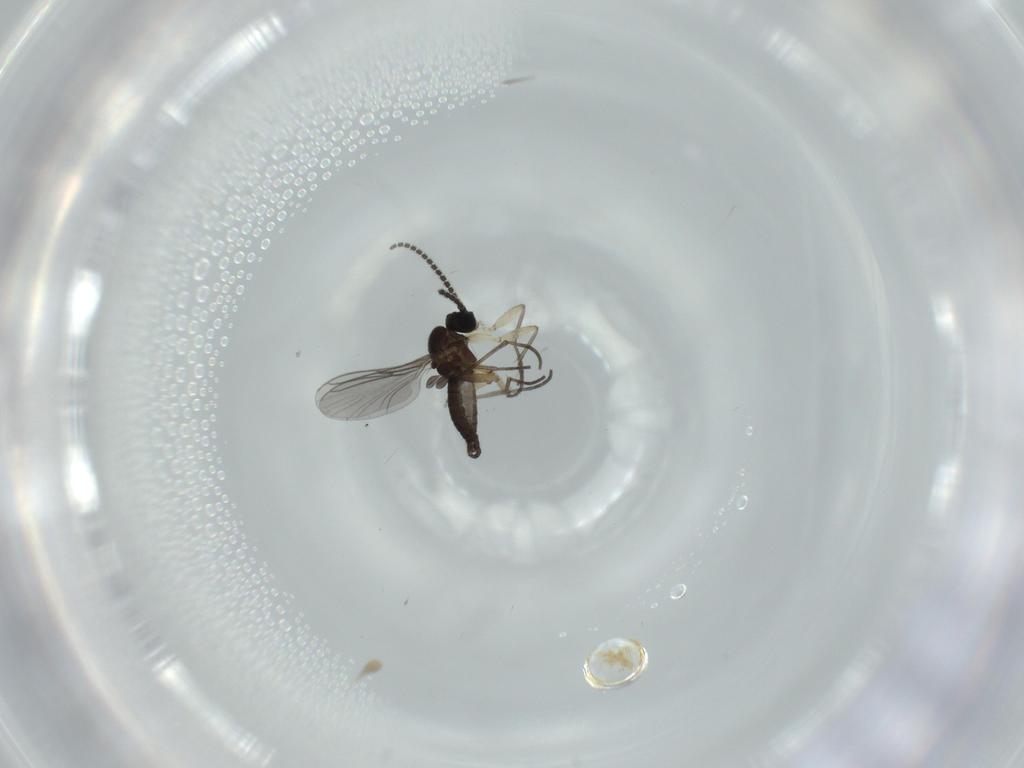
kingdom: Animalia
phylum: Arthropoda
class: Insecta
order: Diptera
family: Sciaridae
